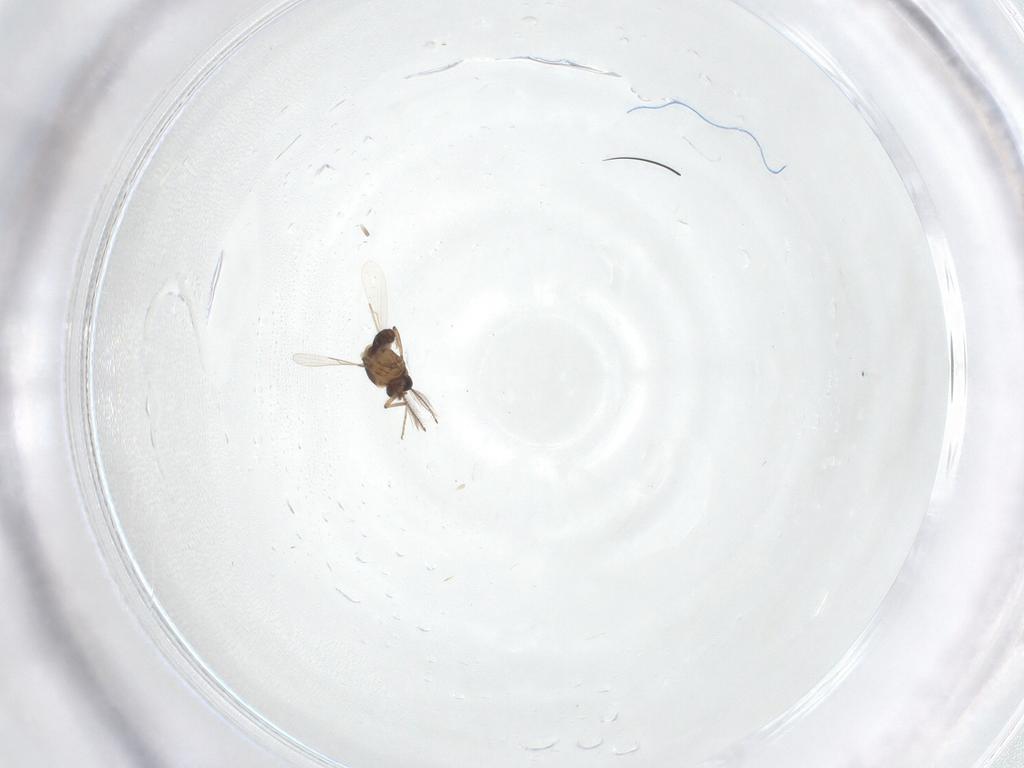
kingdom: Animalia
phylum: Arthropoda
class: Insecta
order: Diptera
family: Ceratopogonidae
